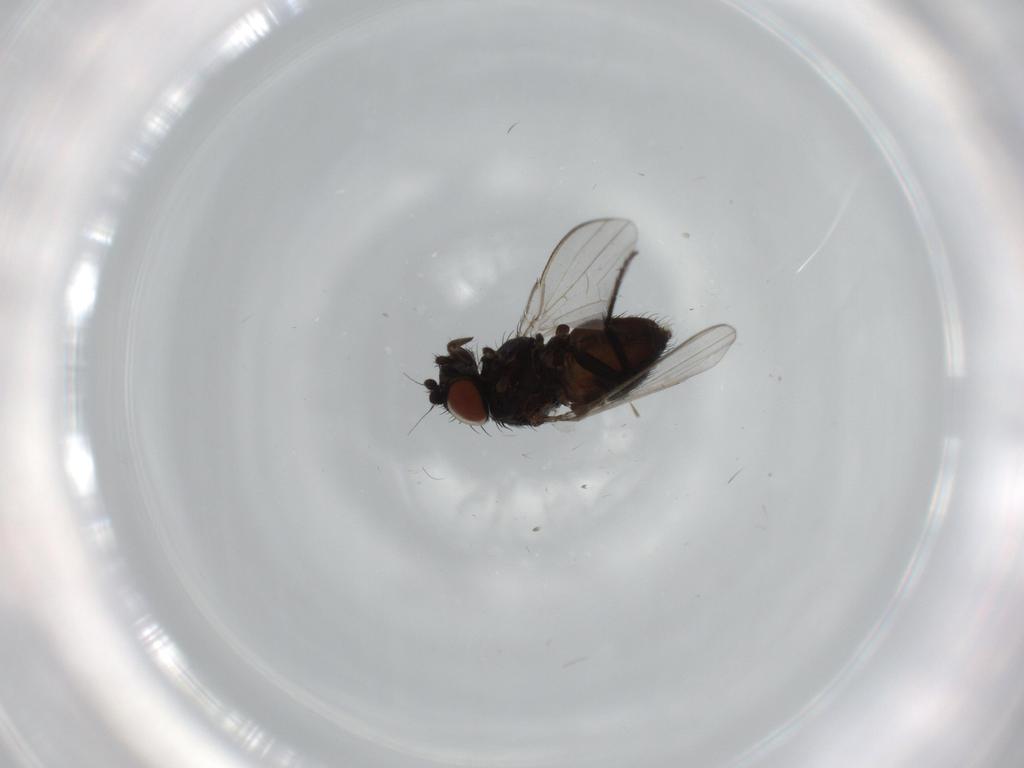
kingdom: Animalia
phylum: Arthropoda
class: Insecta
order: Diptera
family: Milichiidae
